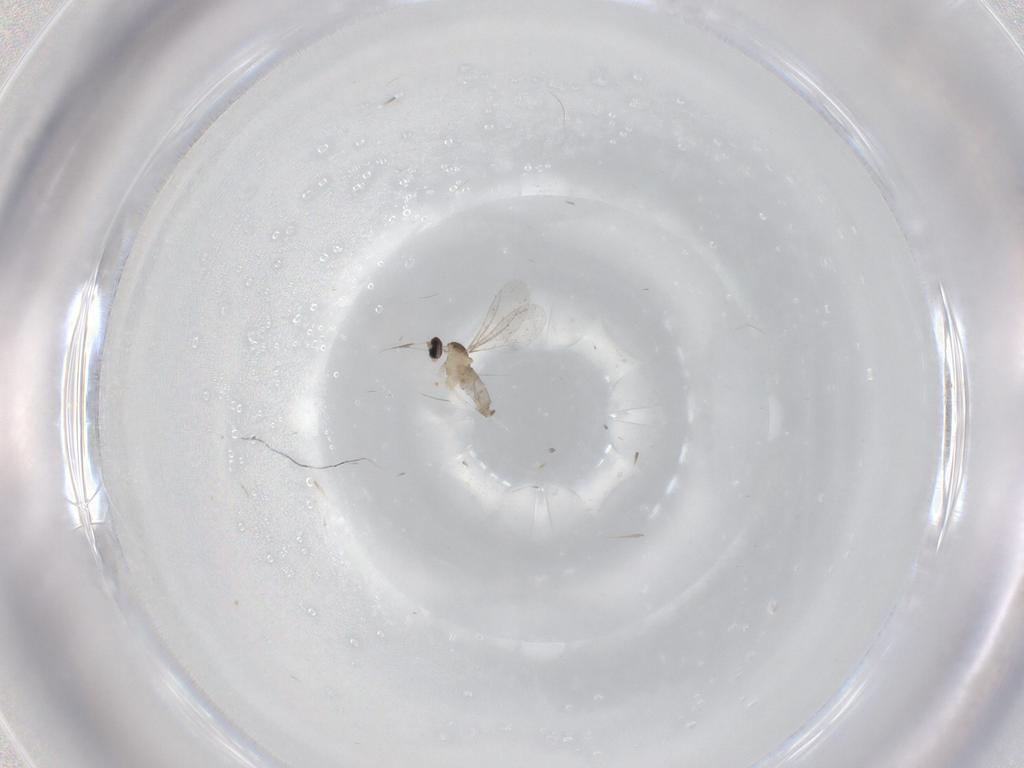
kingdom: Animalia
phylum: Arthropoda
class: Insecta
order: Diptera
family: Cecidomyiidae
